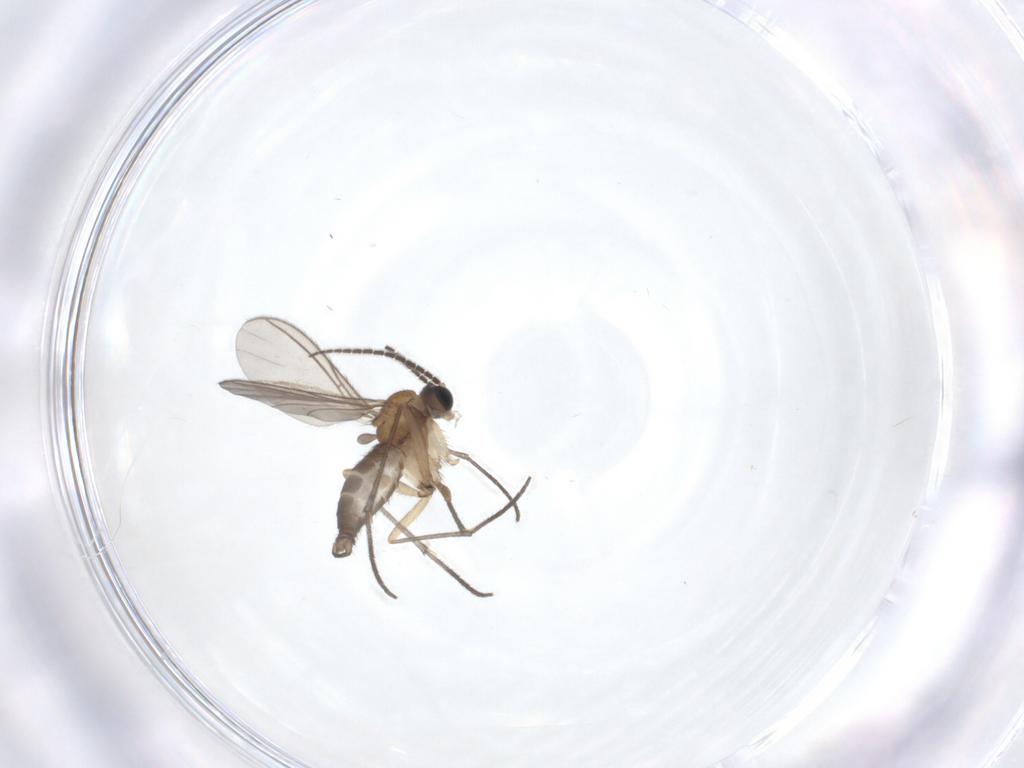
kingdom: Animalia
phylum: Arthropoda
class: Insecta
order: Diptera
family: Sciaridae
